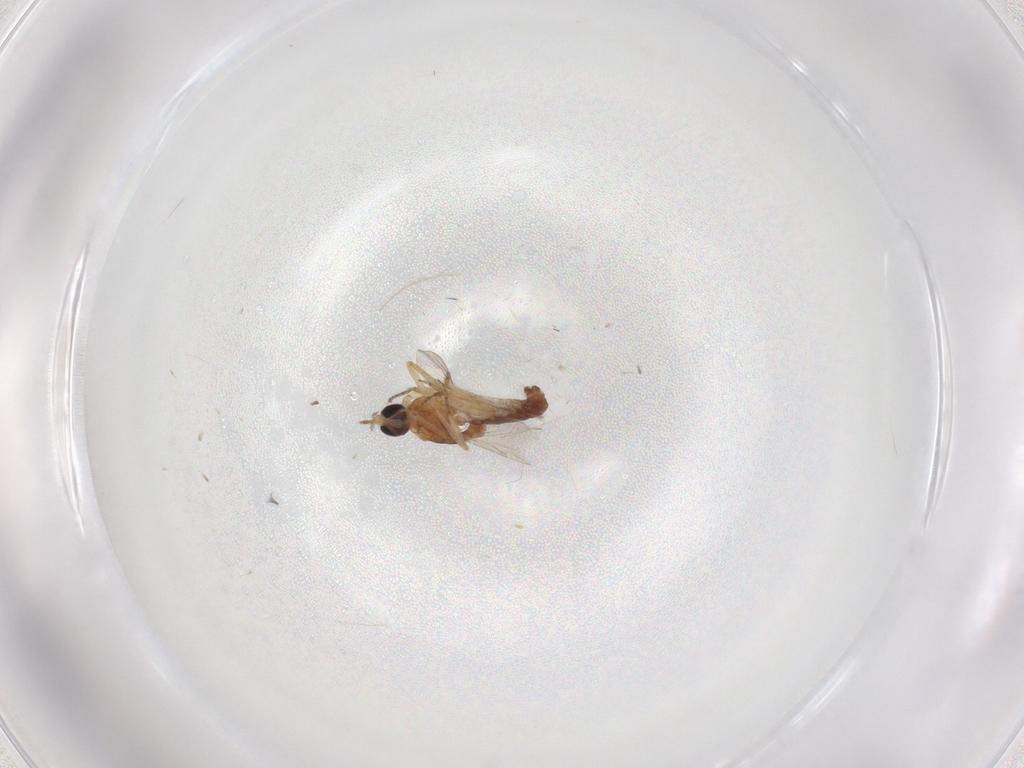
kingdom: Animalia
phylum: Arthropoda
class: Insecta
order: Diptera
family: Ceratopogonidae
